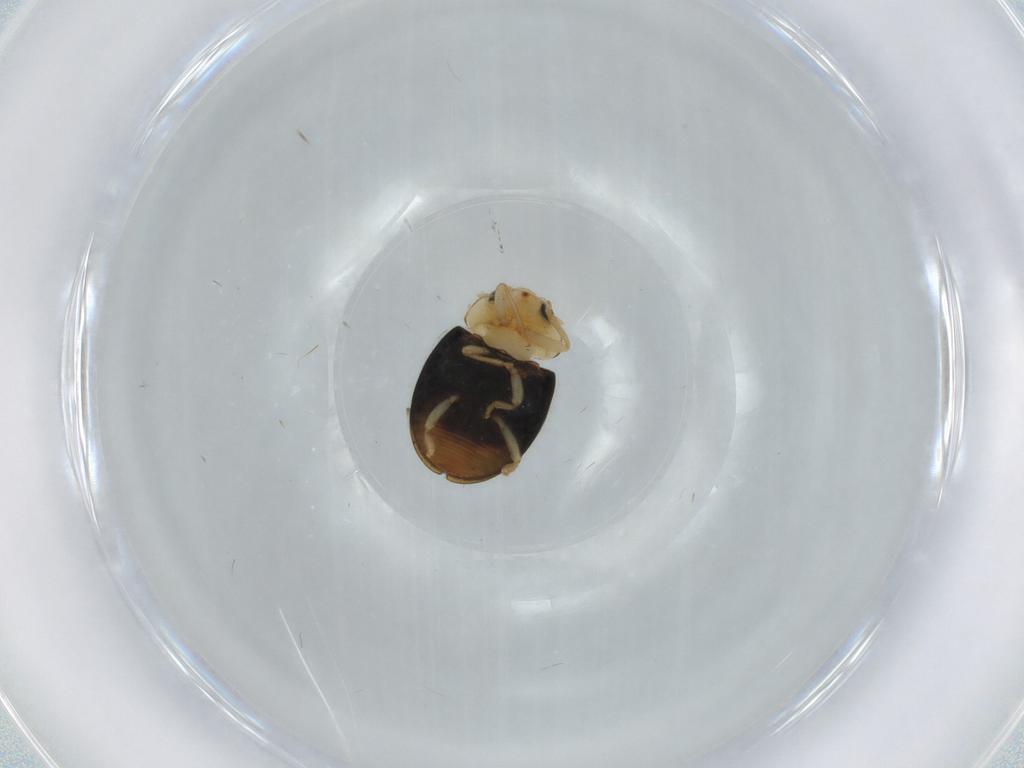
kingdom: Animalia
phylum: Arthropoda
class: Insecta
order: Coleoptera
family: Coccinellidae
